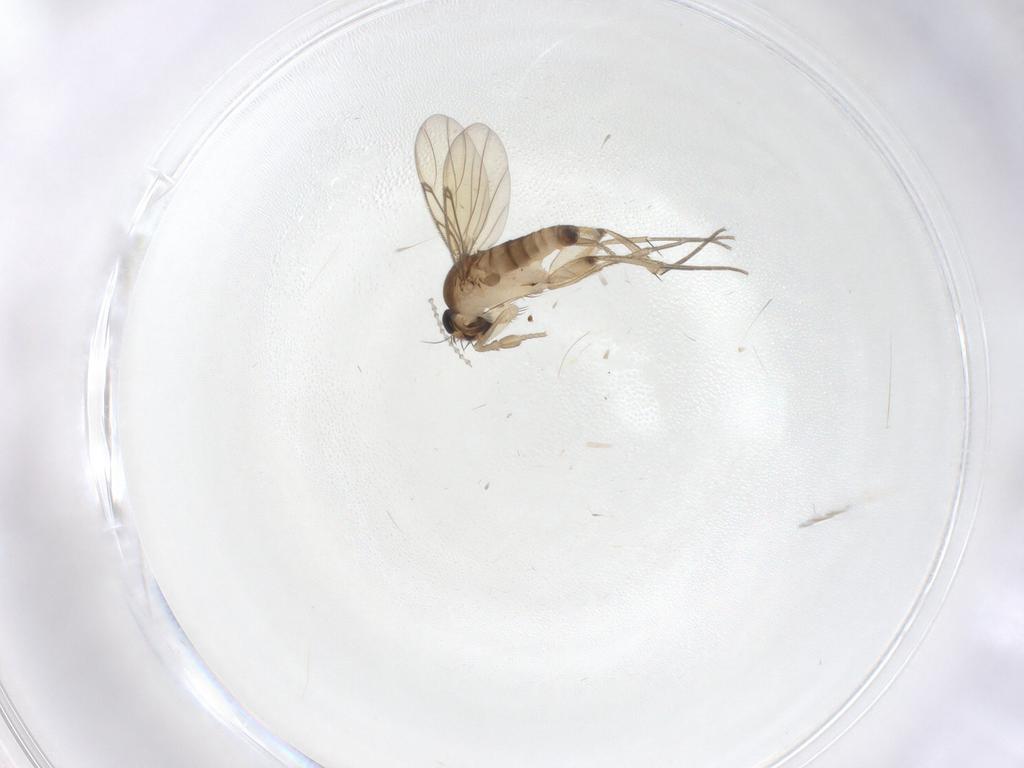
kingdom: Animalia
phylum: Arthropoda
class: Insecta
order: Diptera
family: Phoridae
